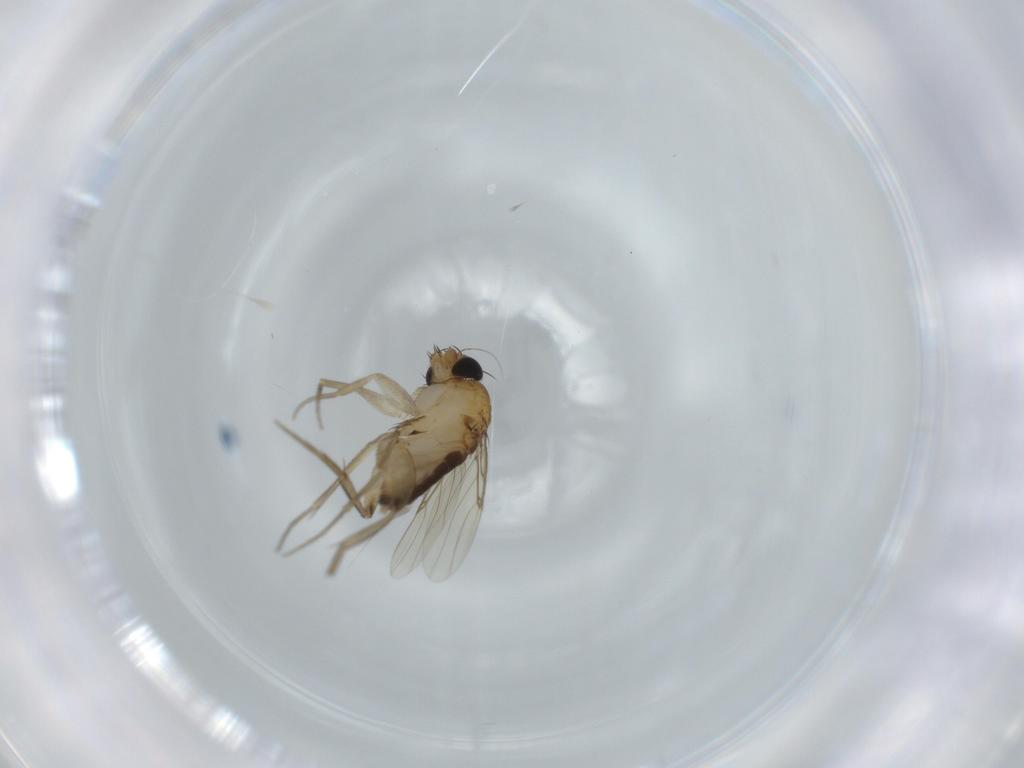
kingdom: Animalia
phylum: Arthropoda
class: Insecta
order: Diptera
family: Phoridae
